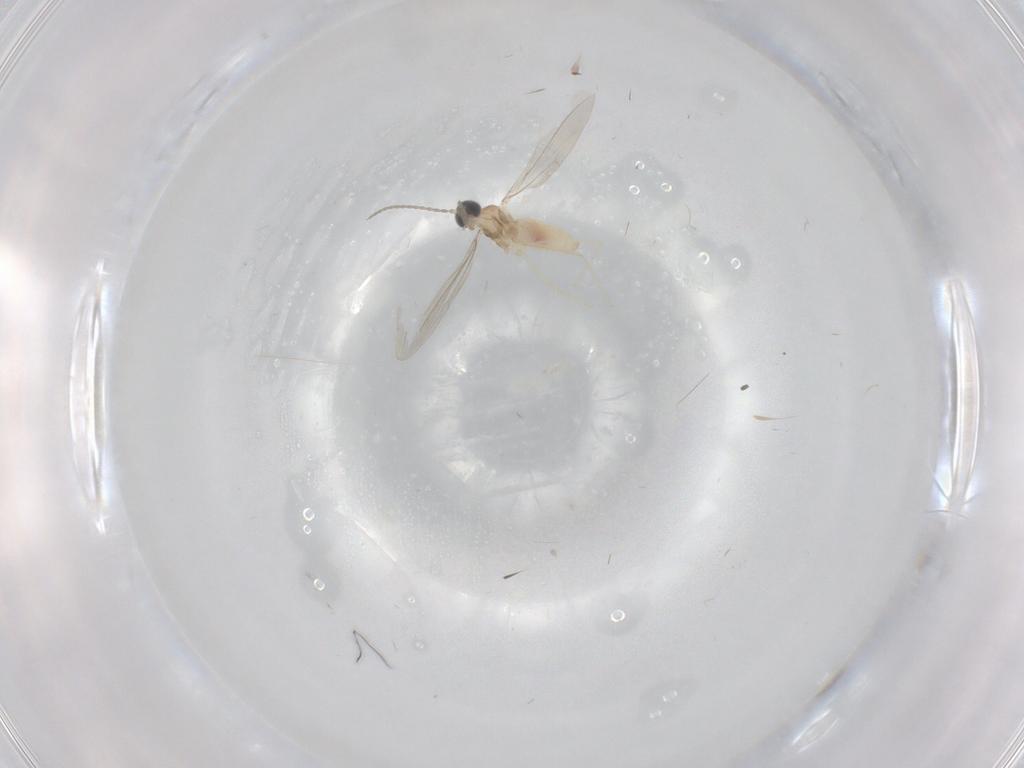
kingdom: Animalia
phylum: Arthropoda
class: Insecta
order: Diptera
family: Cecidomyiidae
